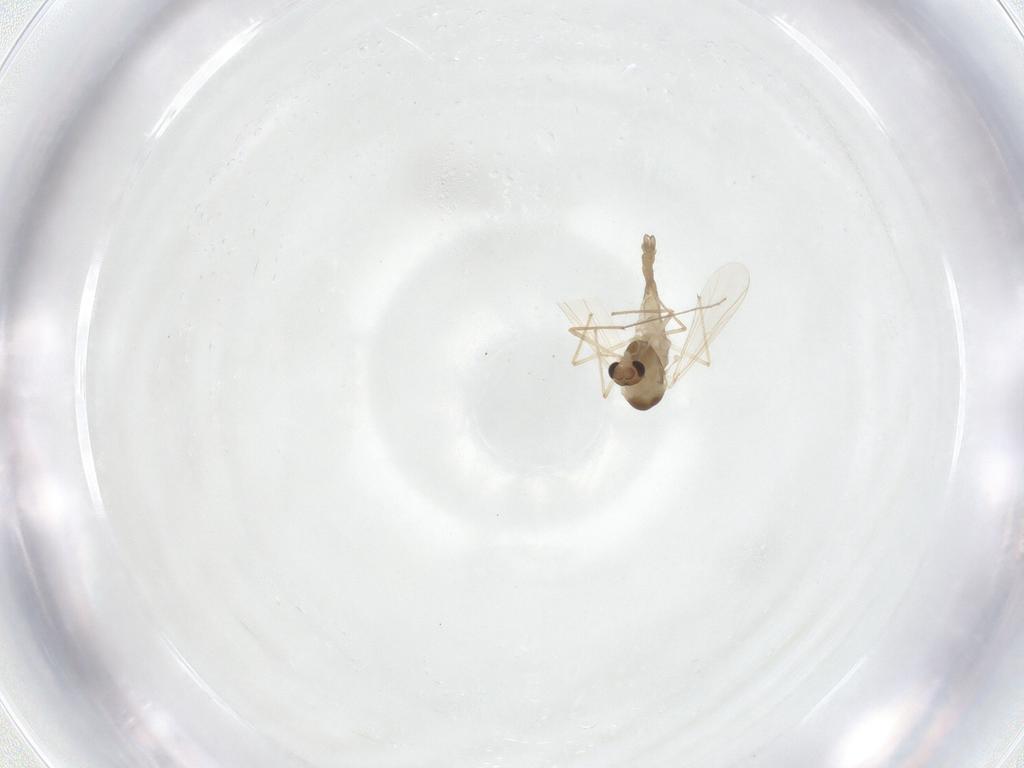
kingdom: Animalia
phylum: Arthropoda
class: Insecta
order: Diptera
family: Chironomidae
